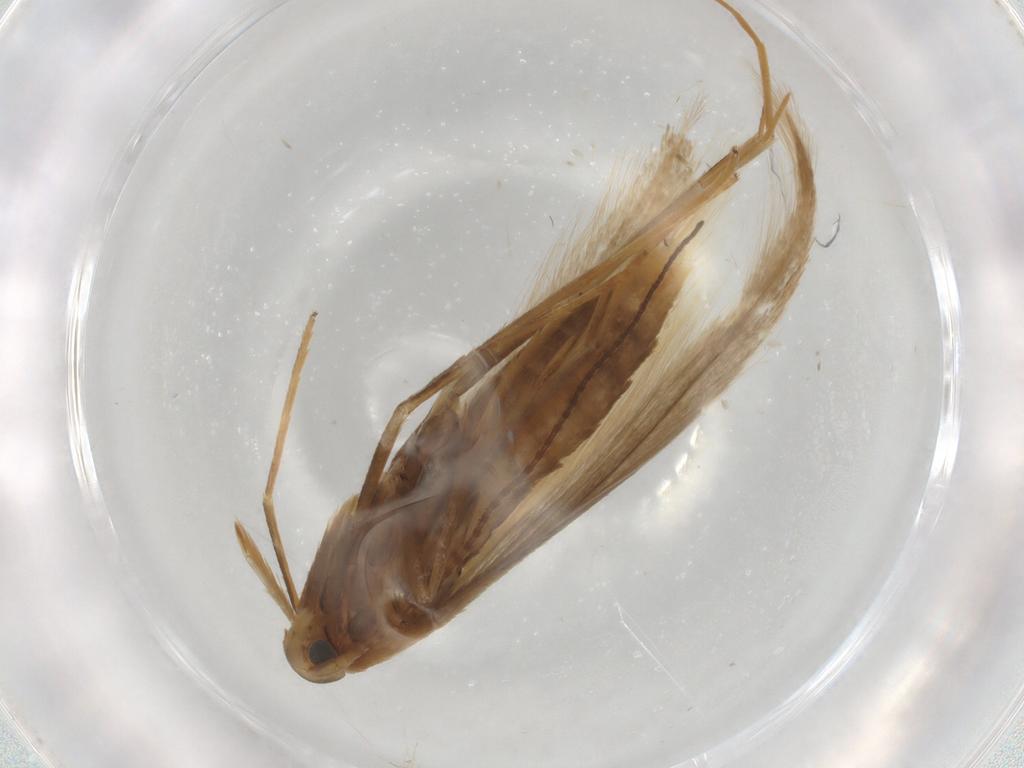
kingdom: Animalia
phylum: Arthropoda
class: Insecta
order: Lepidoptera
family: Coleophoridae
